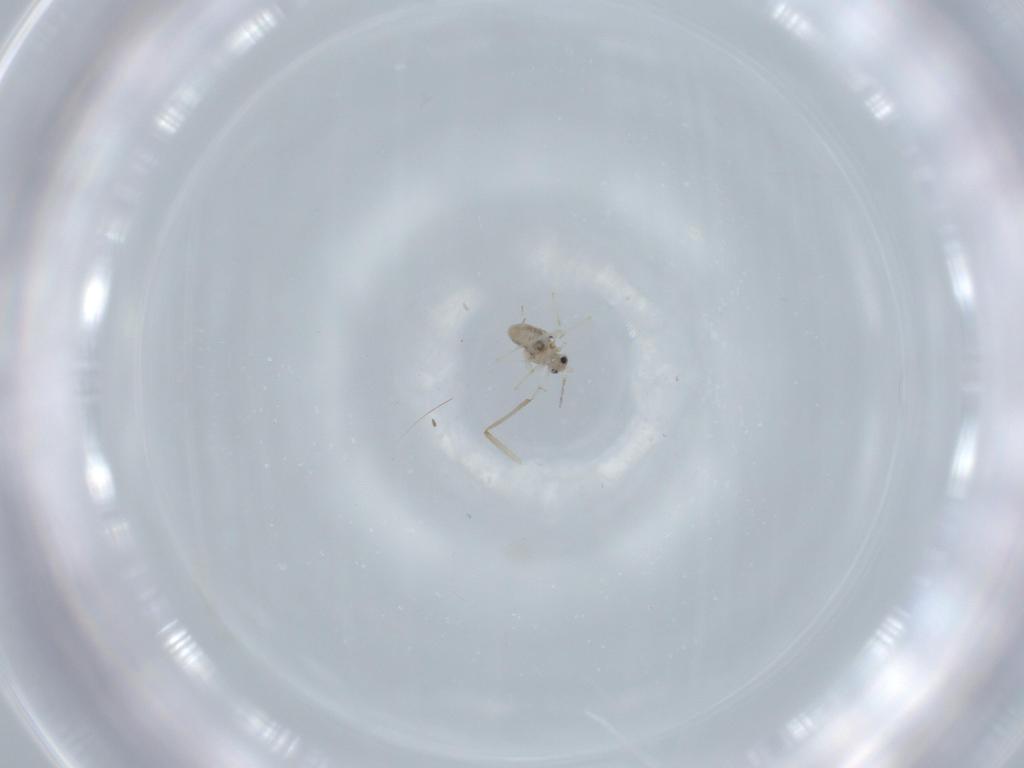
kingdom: Animalia
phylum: Arthropoda
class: Insecta
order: Diptera
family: Cecidomyiidae
